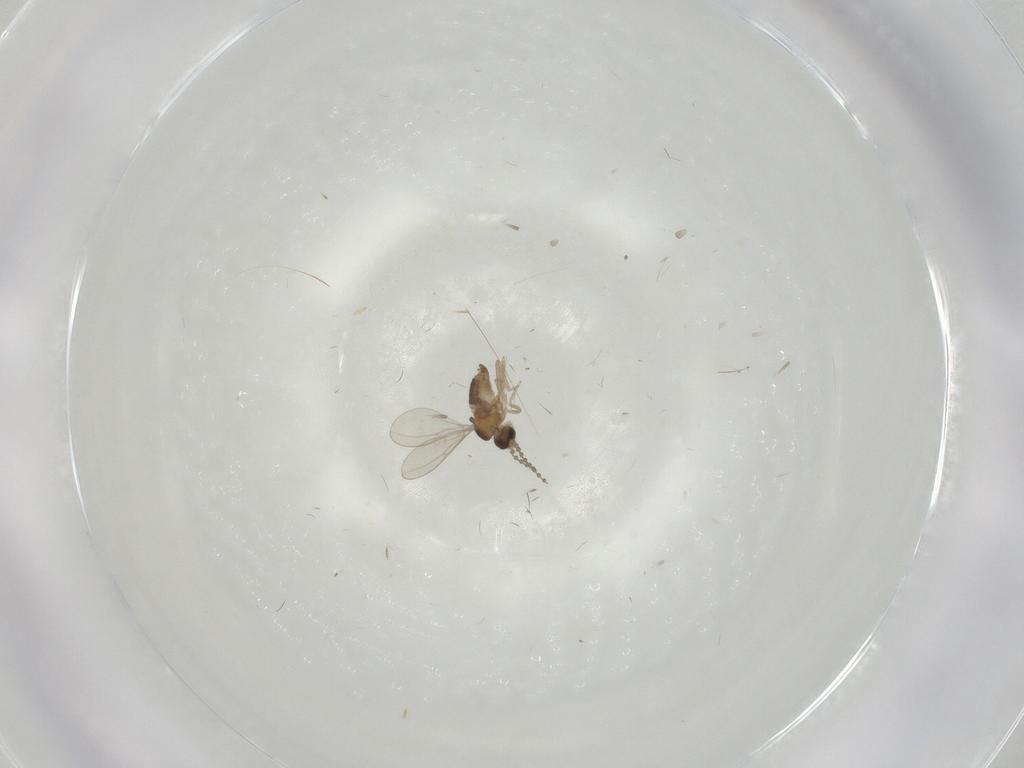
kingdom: Animalia
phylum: Arthropoda
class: Insecta
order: Diptera
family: Cecidomyiidae
